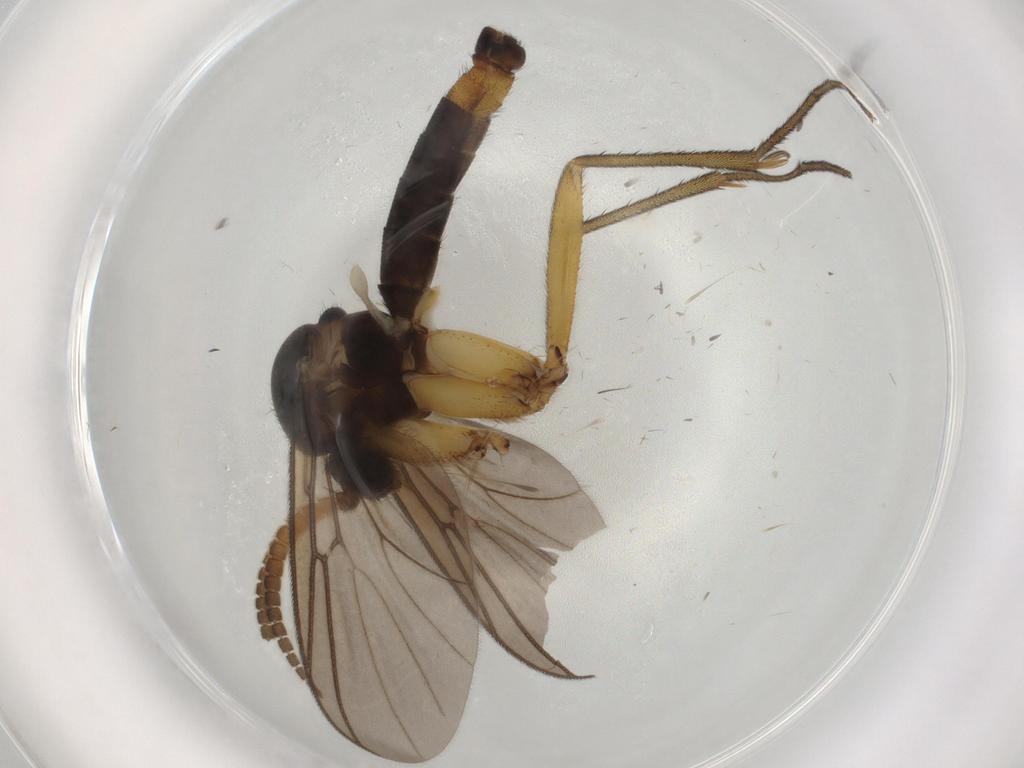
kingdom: Animalia
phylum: Arthropoda
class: Insecta
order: Diptera
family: Mycetophilidae
